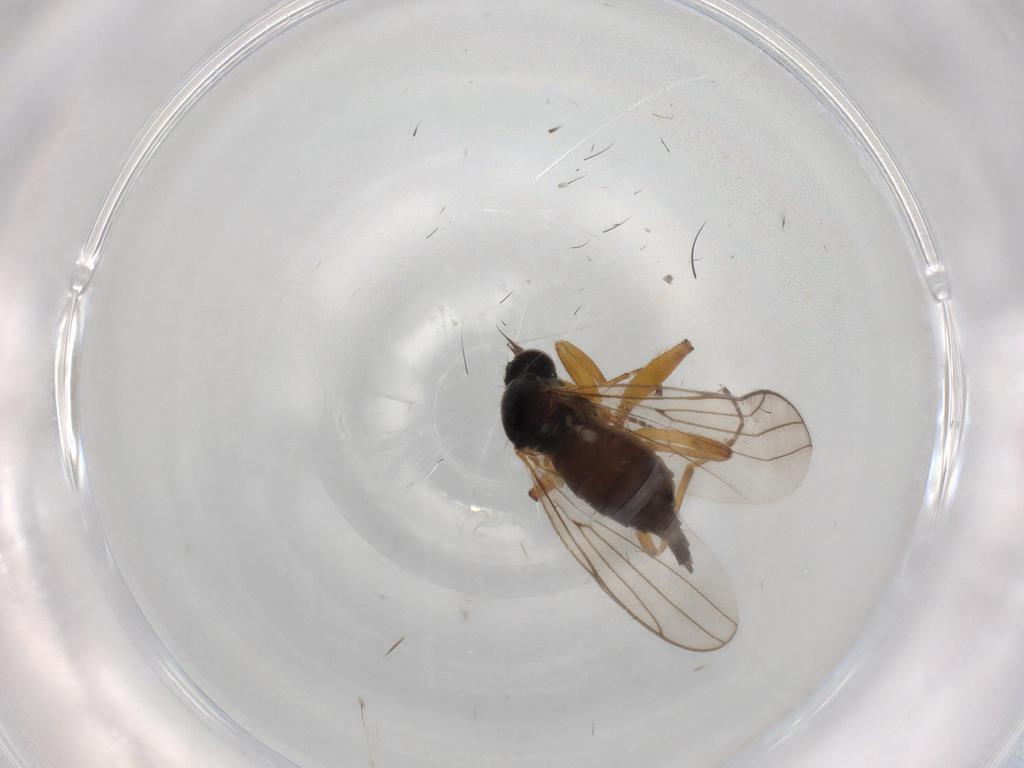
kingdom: Animalia
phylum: Arthropoda
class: Insecta
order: Diptera
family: Hybotidae
